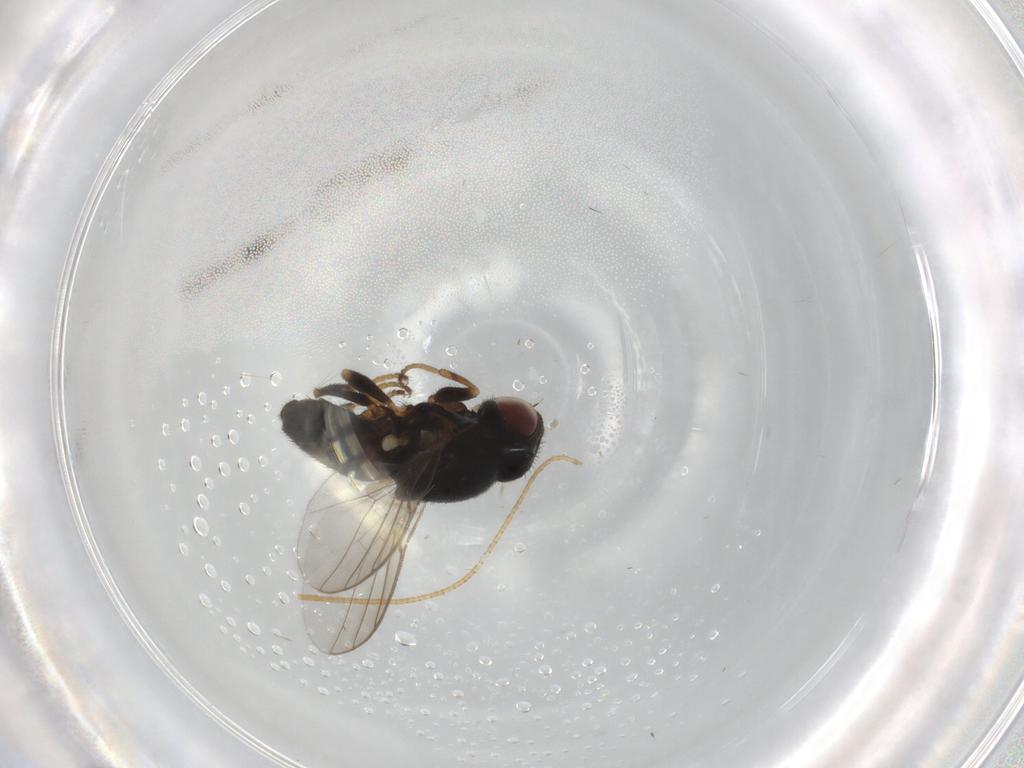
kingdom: Animalia
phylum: Arthropoda
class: Insecta
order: Diptera
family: Chloropidae
